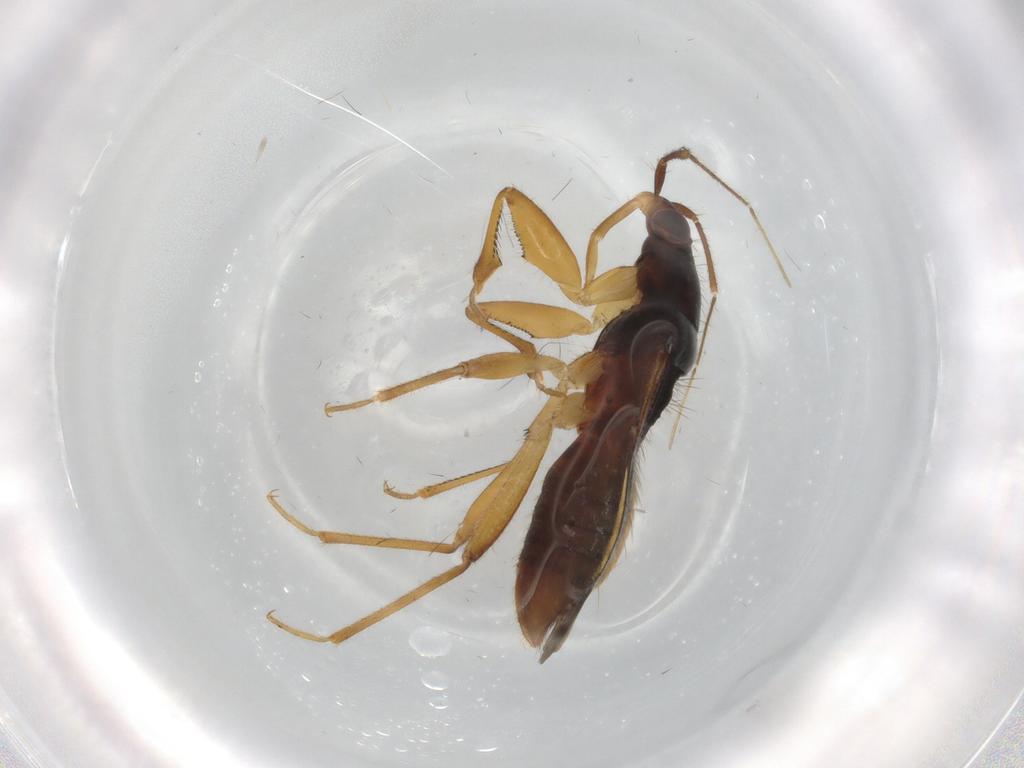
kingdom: Animalia
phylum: Arthropoda
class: Insecta
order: Hemiptera
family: Nabidae
